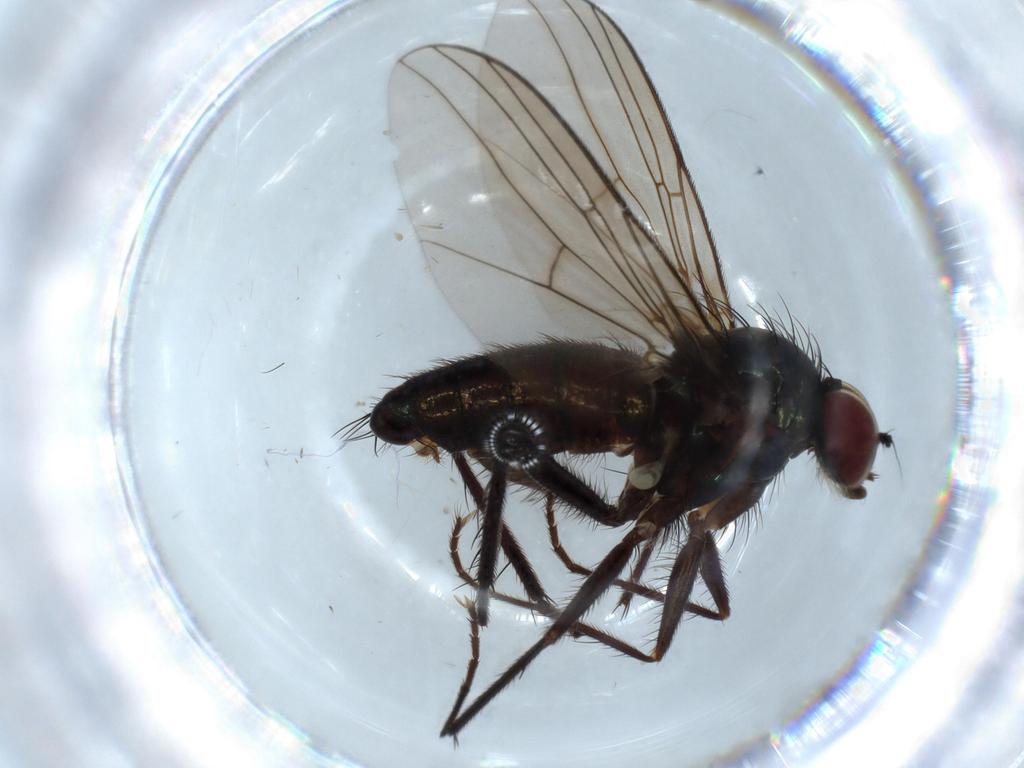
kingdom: Animalia
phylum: Arthropoda
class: Insecta
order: Diptera
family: Dolichopodidae
